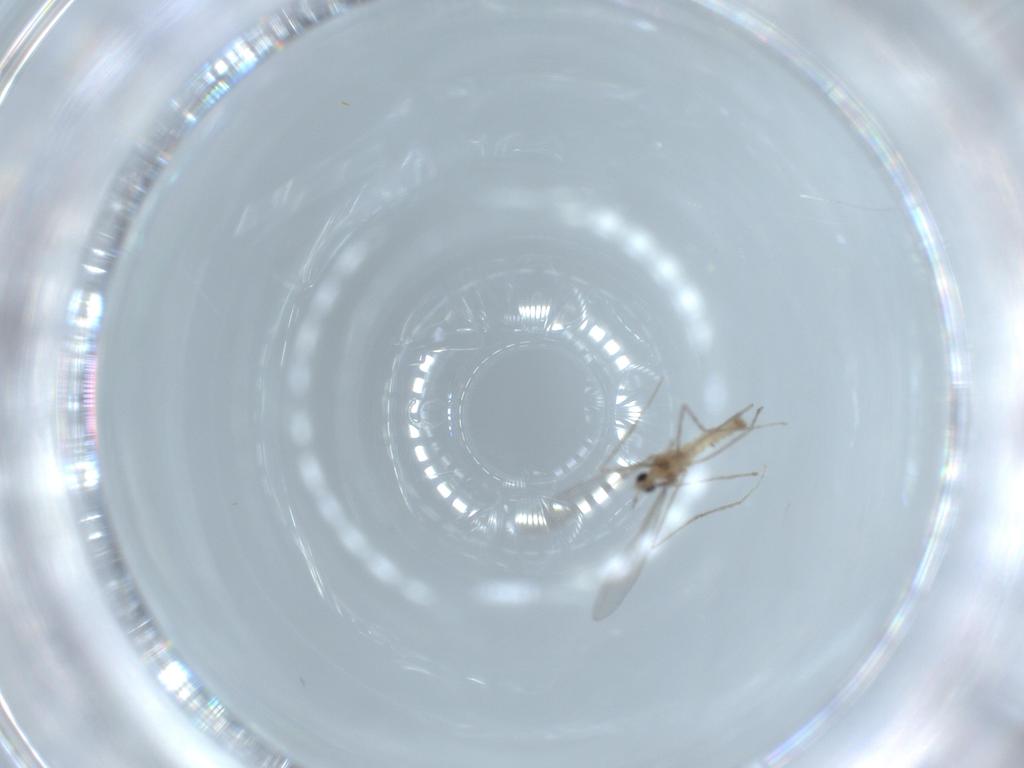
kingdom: Animalia
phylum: Arthropoda
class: Insecta
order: Diptera
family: Cecidomyiidae
